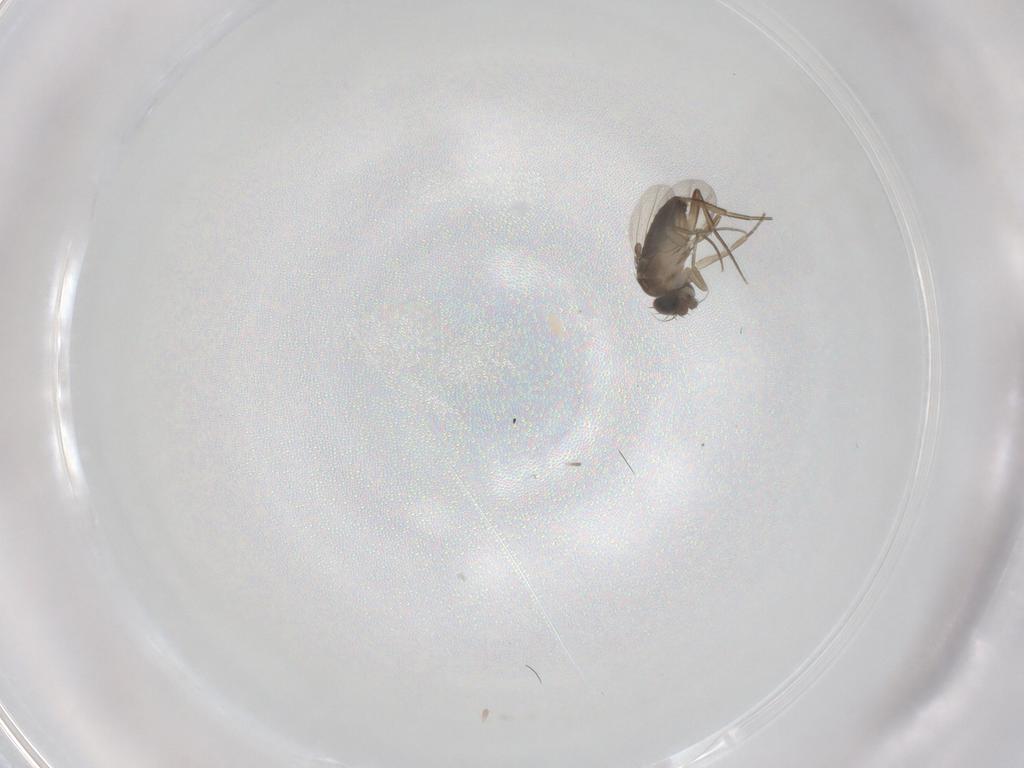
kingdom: Animalia
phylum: Arthropoda
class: Insecta
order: Diptera
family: Phoridae
